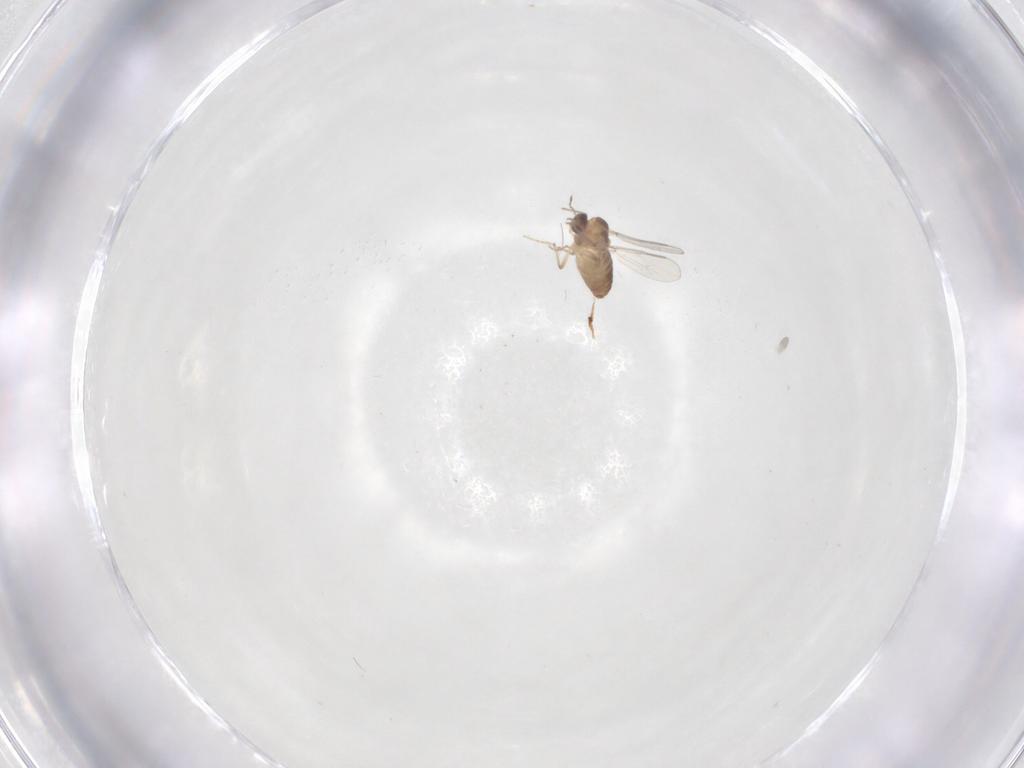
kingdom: Animalia
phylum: Arthropoda
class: Insecta
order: Diptera
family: Chironomidae
